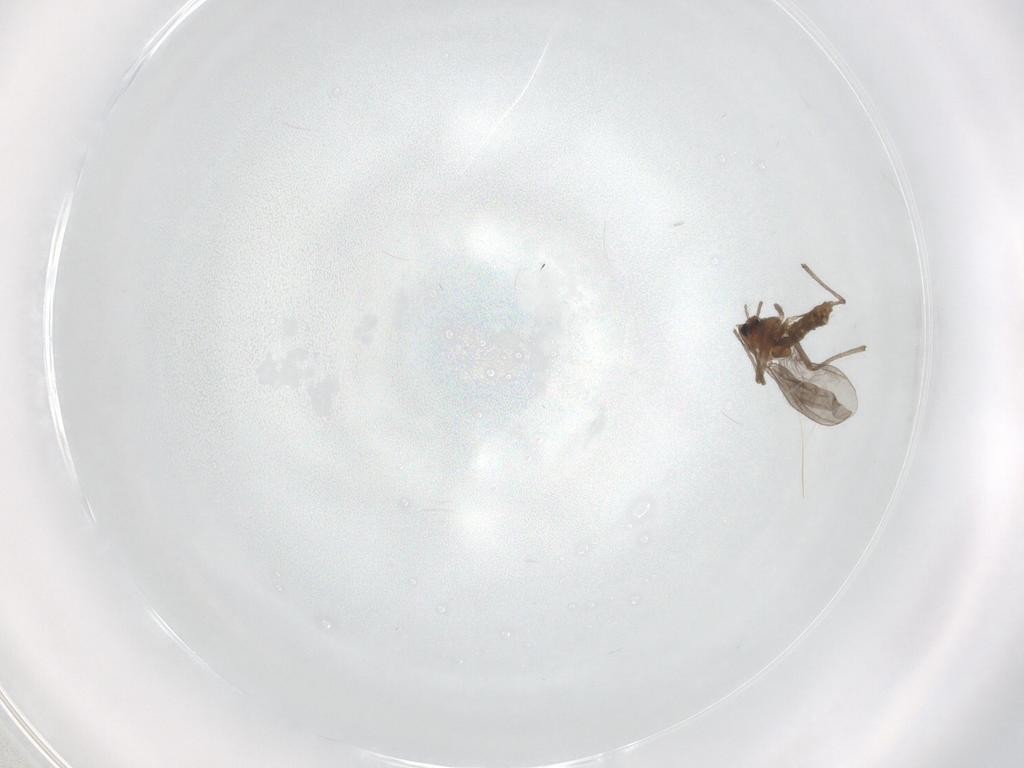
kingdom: Animalia
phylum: Arthropoda
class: Insecta
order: Diptera
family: Chironomidae
